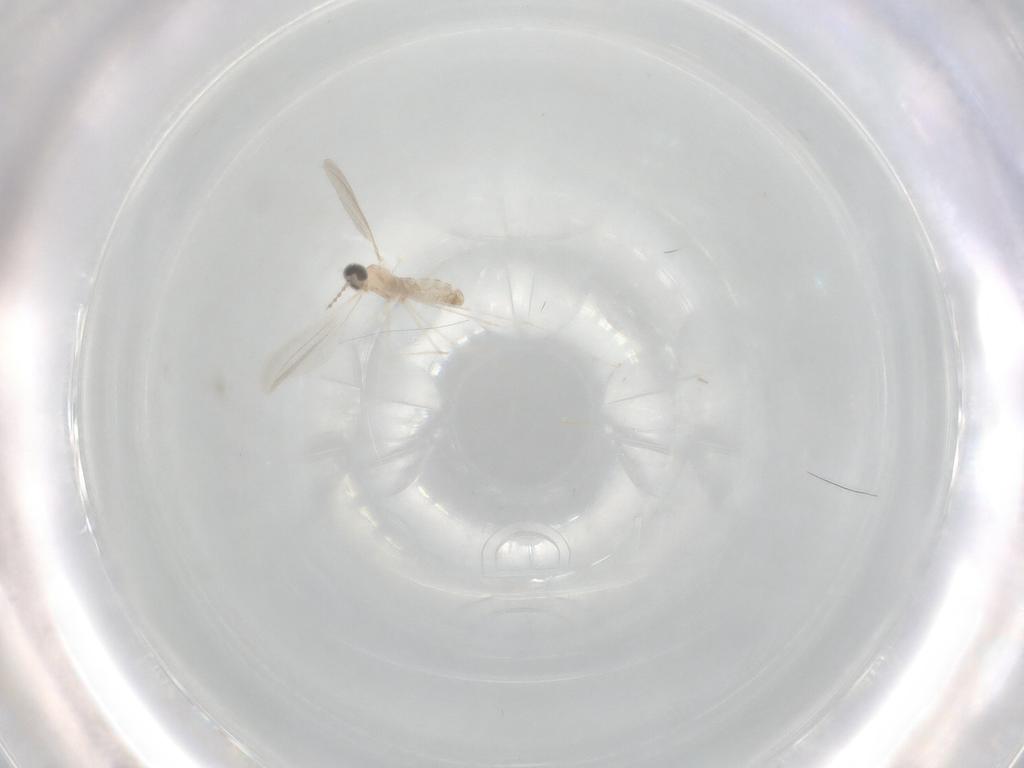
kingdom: Animalia
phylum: Arthropoda
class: Insecta
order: Diptera
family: Cecidomyiidae
